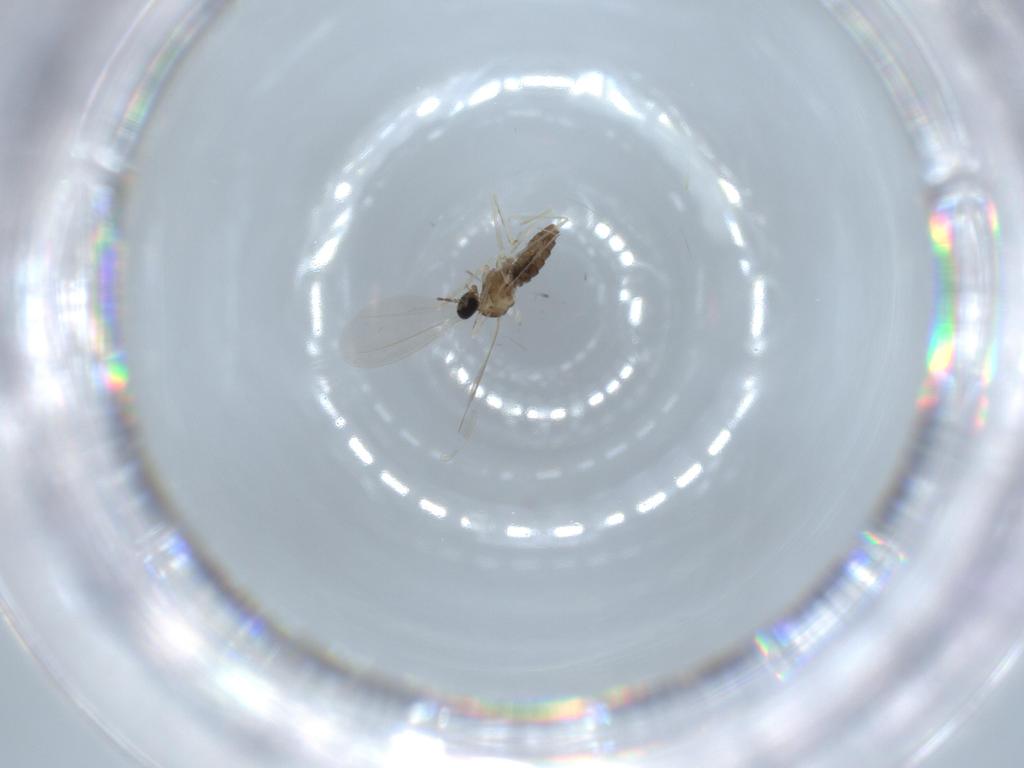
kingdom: Animalia
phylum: Arthropoda
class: Insecta
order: Diptera
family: Cecidomyiidae
